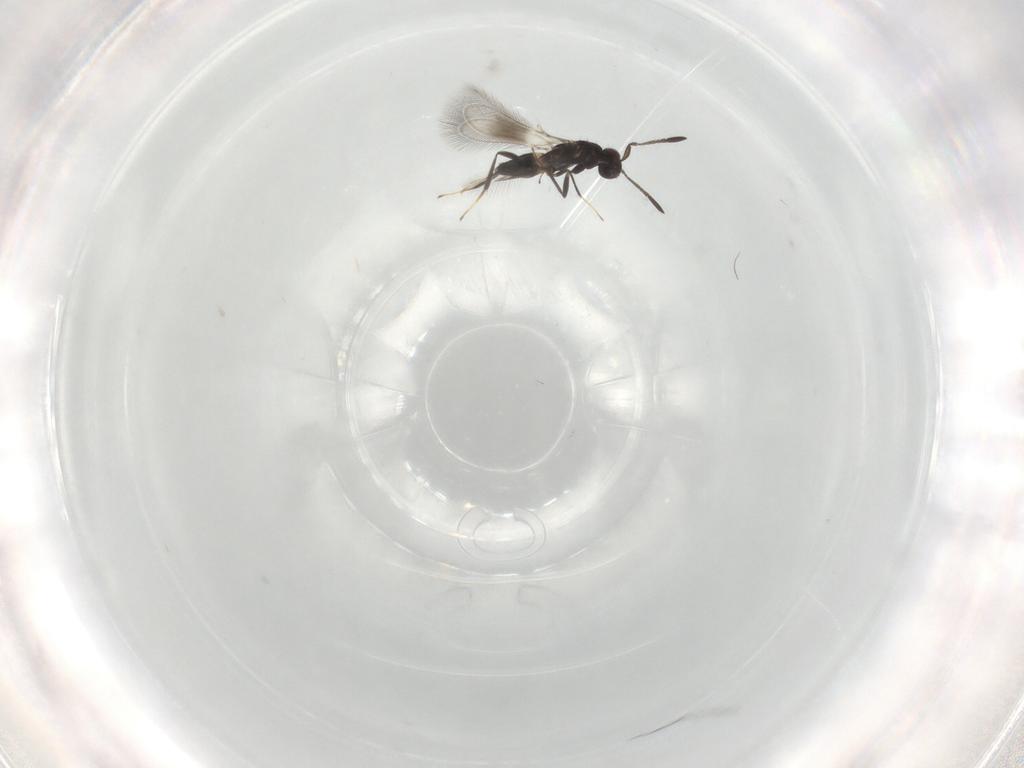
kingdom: Animalia
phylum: Arthropoda
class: Insecta
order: Hymenoptera
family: Mymaridae
